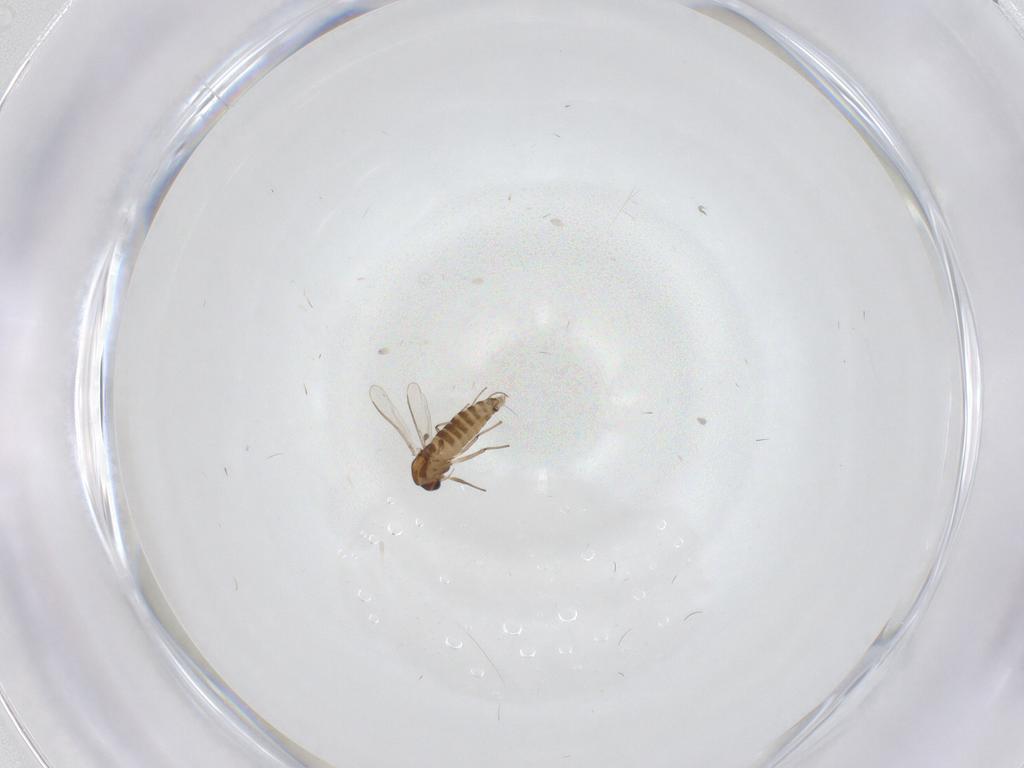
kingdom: Animalia
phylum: Arthropoda
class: Insecta
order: Diptera
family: Chironomidae
